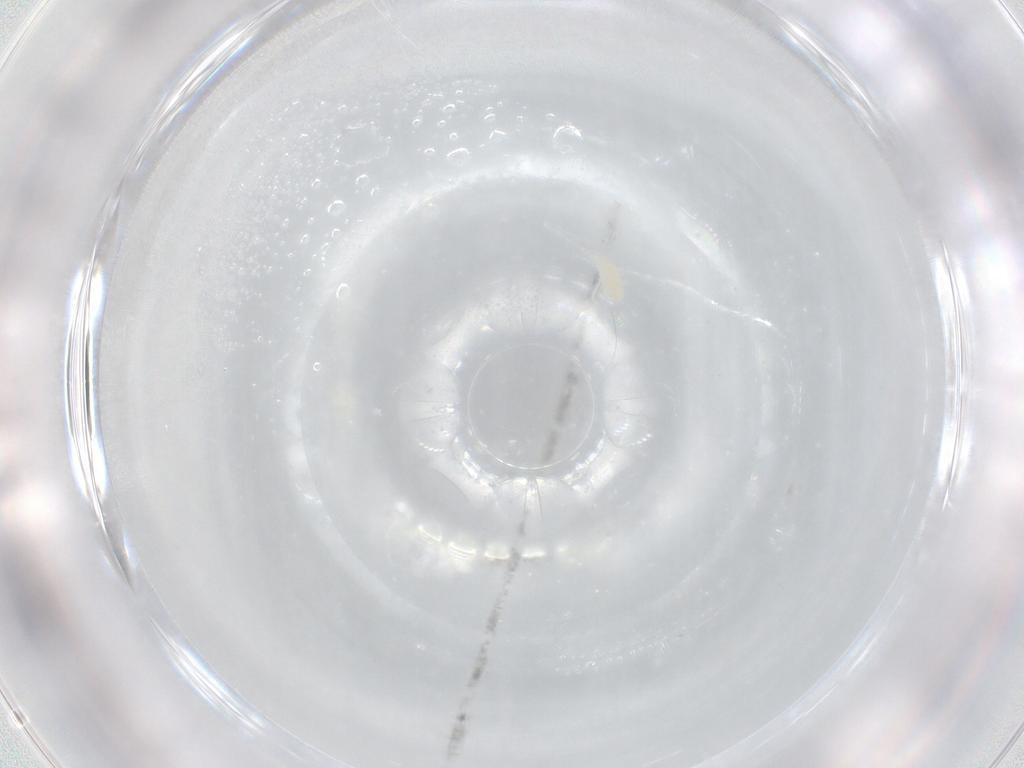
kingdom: Animalia
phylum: Arthropoda
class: Arachnida
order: Trombidiformes
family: Eupodidae
